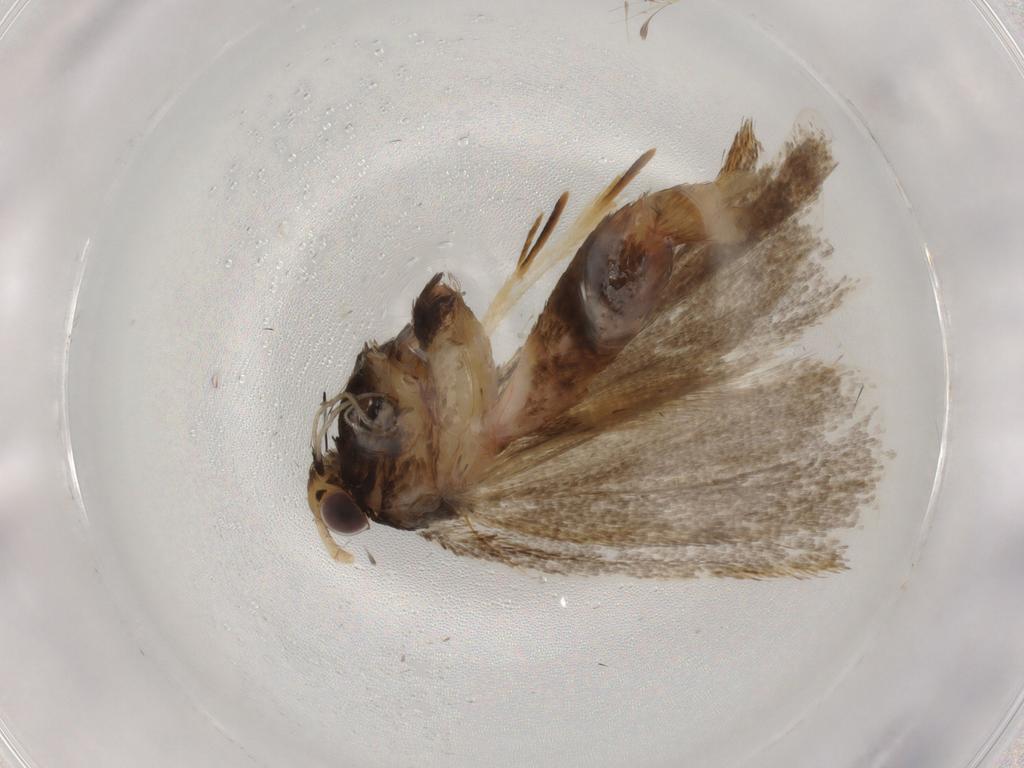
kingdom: Animalia
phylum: Arthropoda
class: Insecta
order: Lepidoptera
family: Lecithoceridae
